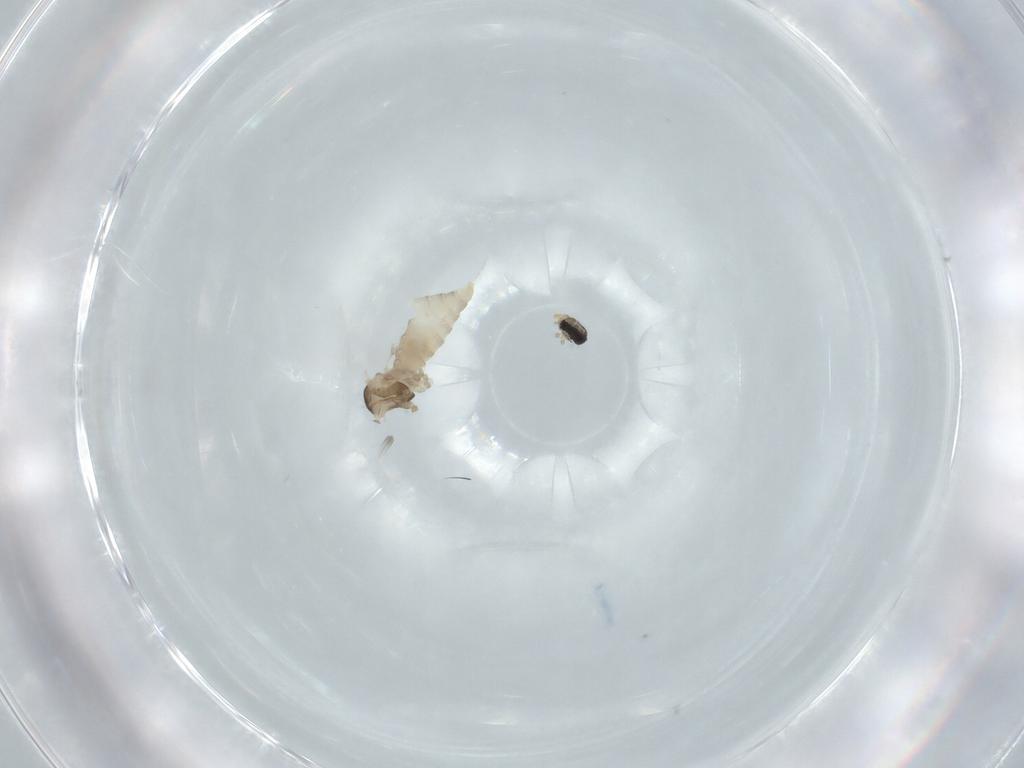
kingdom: Animalia
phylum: Arthropoda
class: Insecta
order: Diptera
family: Cecidomyiidae
